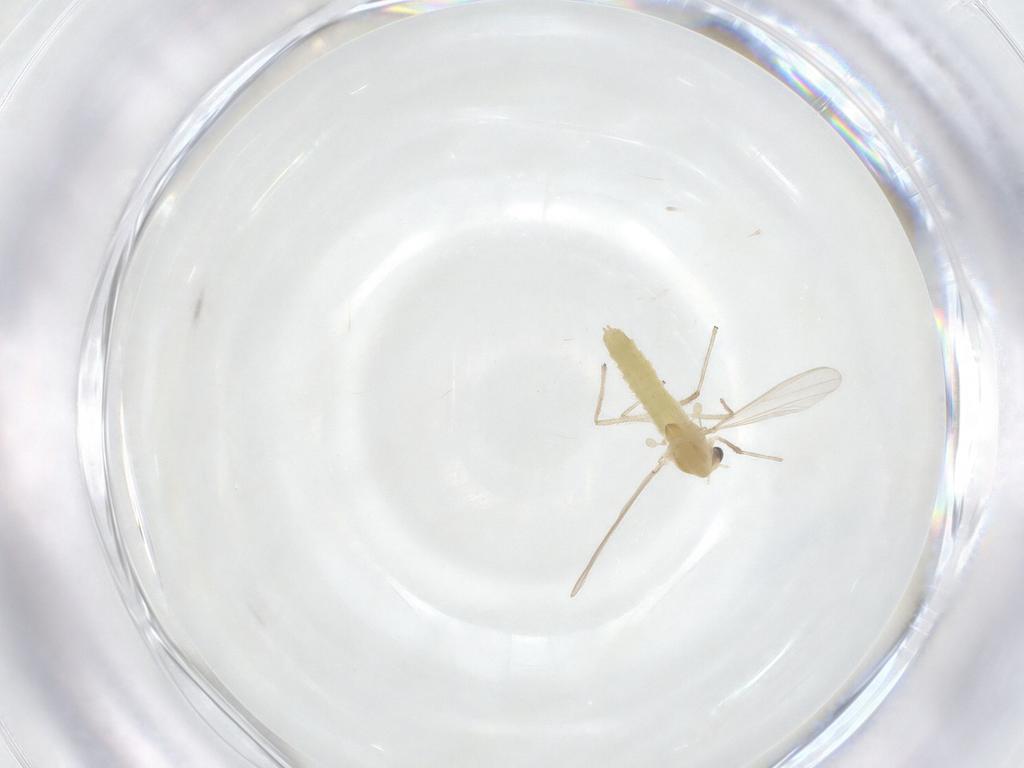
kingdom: Animalia
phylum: Arthropoda
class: Insecta
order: Diptera
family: Chironomidae
